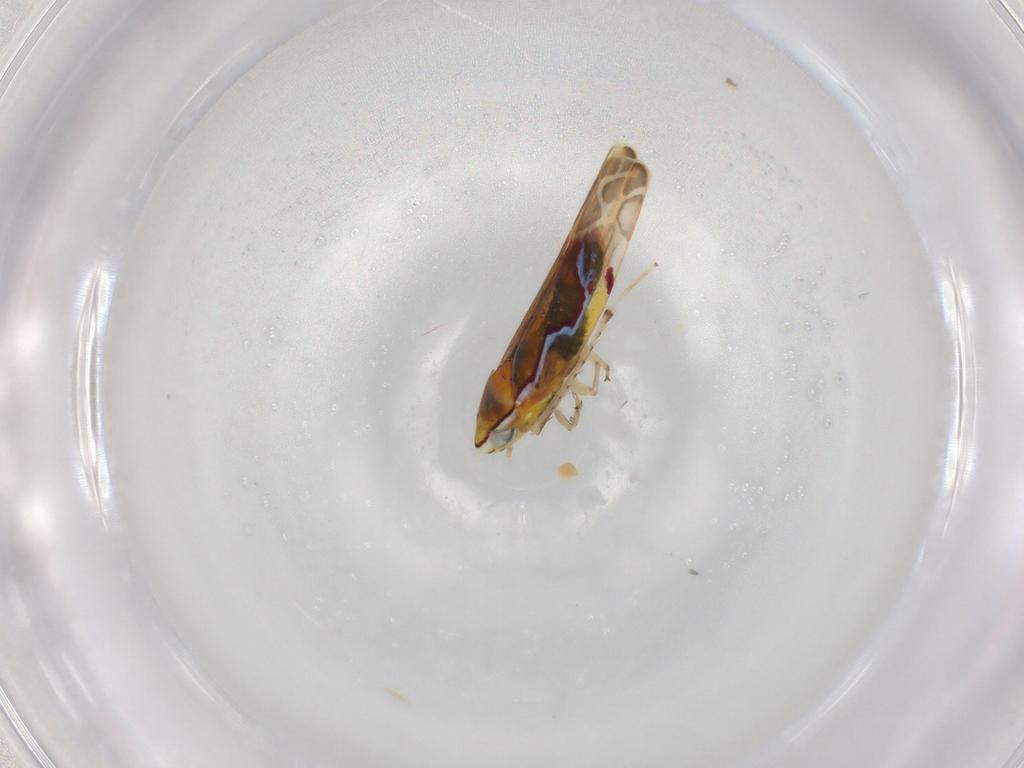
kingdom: Animalia
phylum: Arthropoda
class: Insecta
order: Hemiptera
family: Cicadellidae
